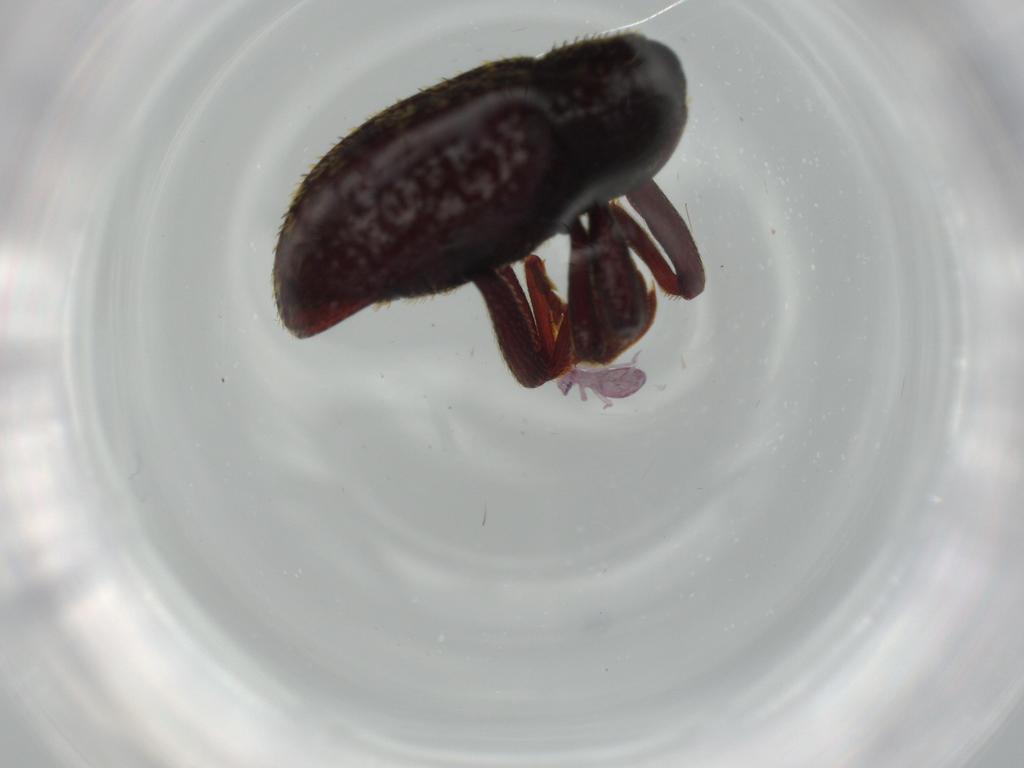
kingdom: Animalia
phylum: Arthropoda
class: Collembola
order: Symphypleona
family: Dicyrtomidae
